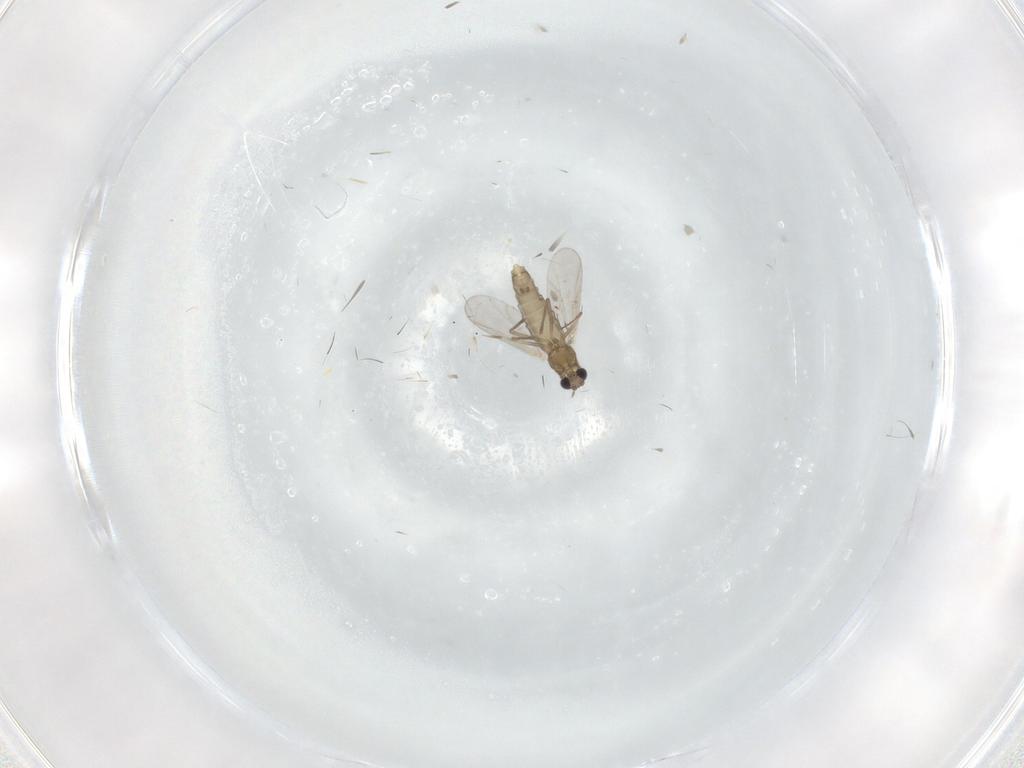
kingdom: Animalia
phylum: Arthropoda
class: Insecta
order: Diptera
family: Chironomidae
